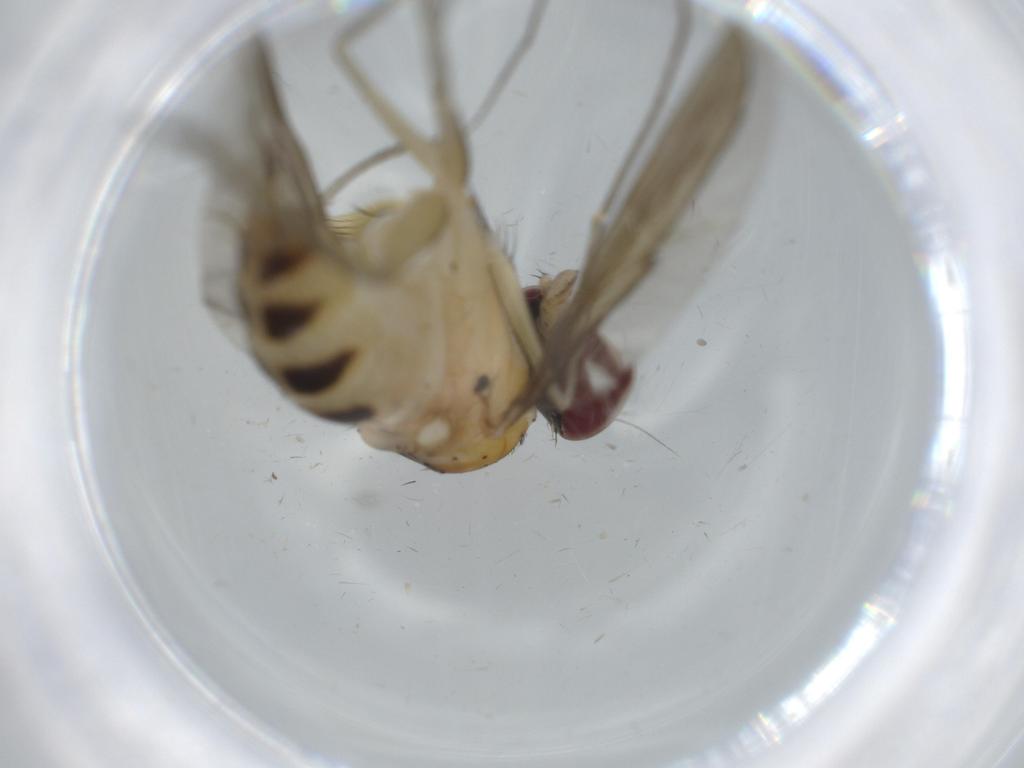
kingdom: Animalia
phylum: Arthropoda
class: Insecta
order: Diptera
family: Dolichopodidae
